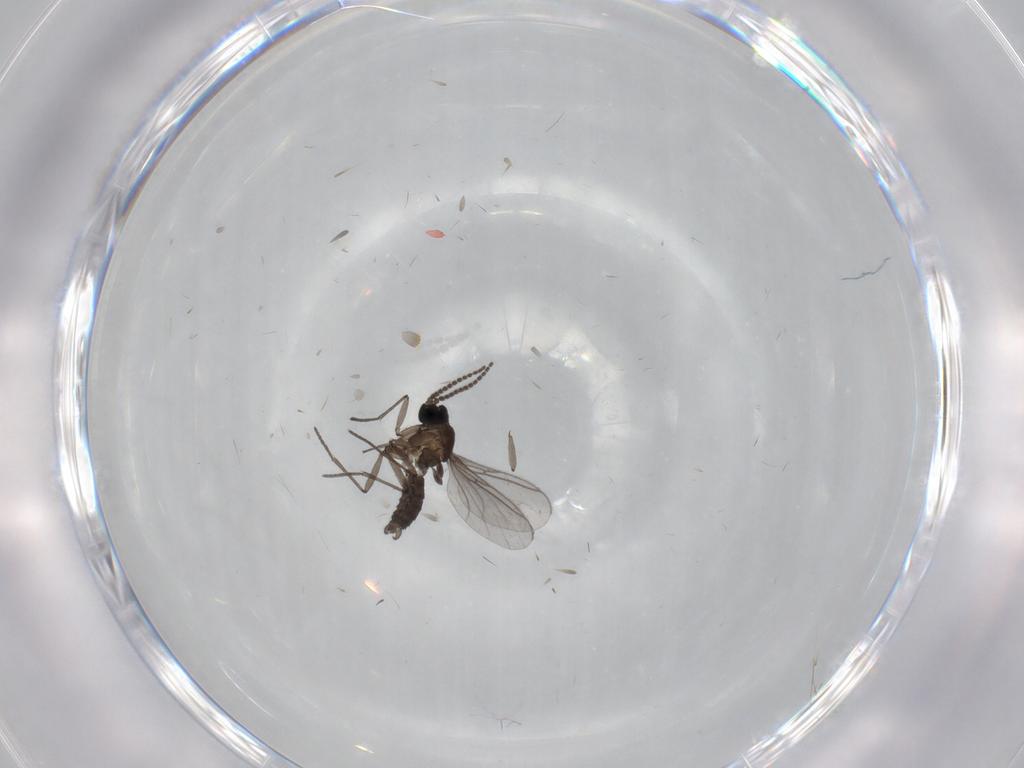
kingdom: Animalia
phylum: Arthropoda
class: Insecta
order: Diptera
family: Sciaridae
